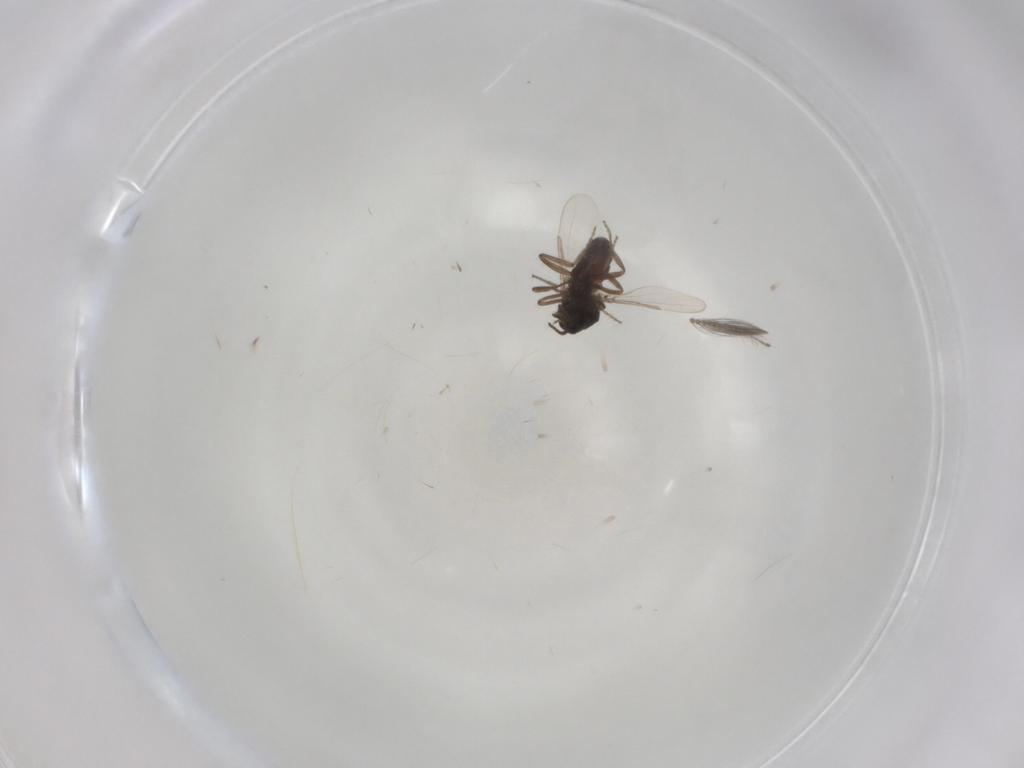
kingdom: Animalia
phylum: Arthropoda
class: Insecta
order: Diptera
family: Ceratopogonidae
